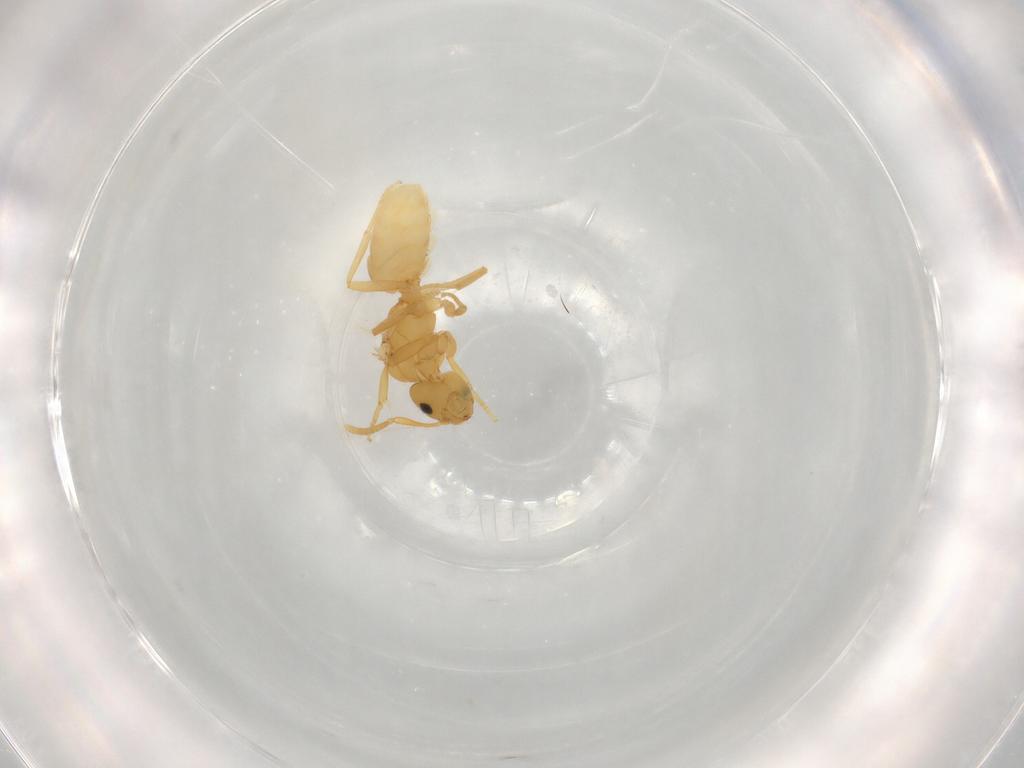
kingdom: Animalia
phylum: Arthropoda
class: Insecta
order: Hymenoptera
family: Formicidae
